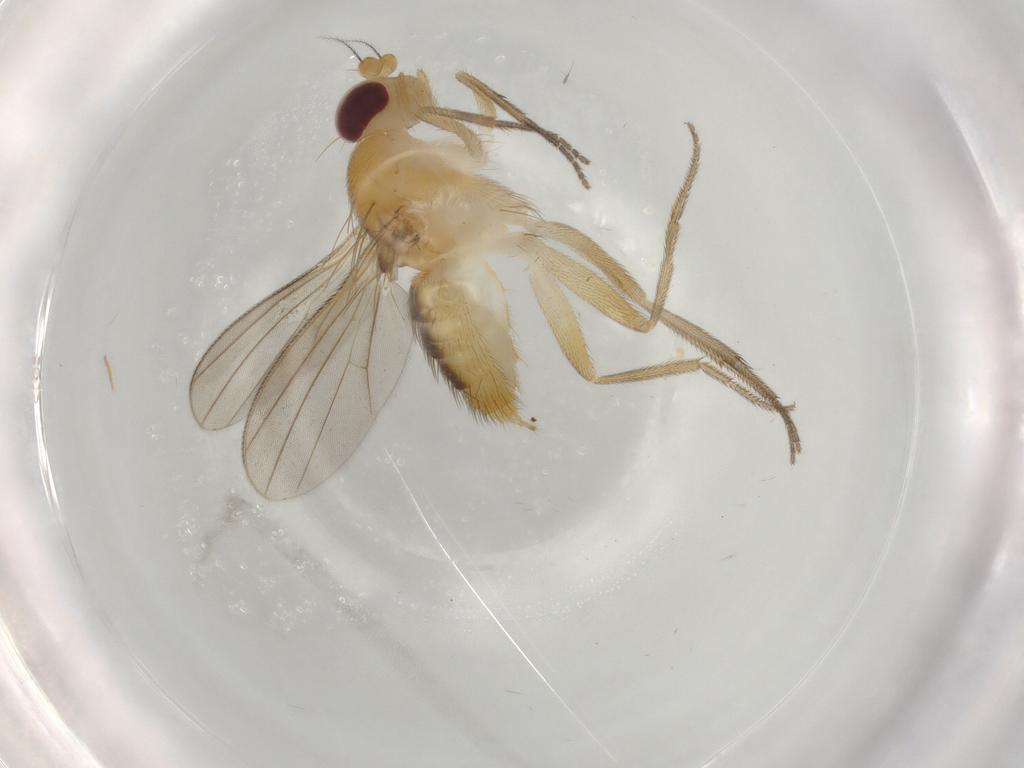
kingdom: Animalia
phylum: Arthropoda
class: Insecta
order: Diptera
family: Clusiidae
